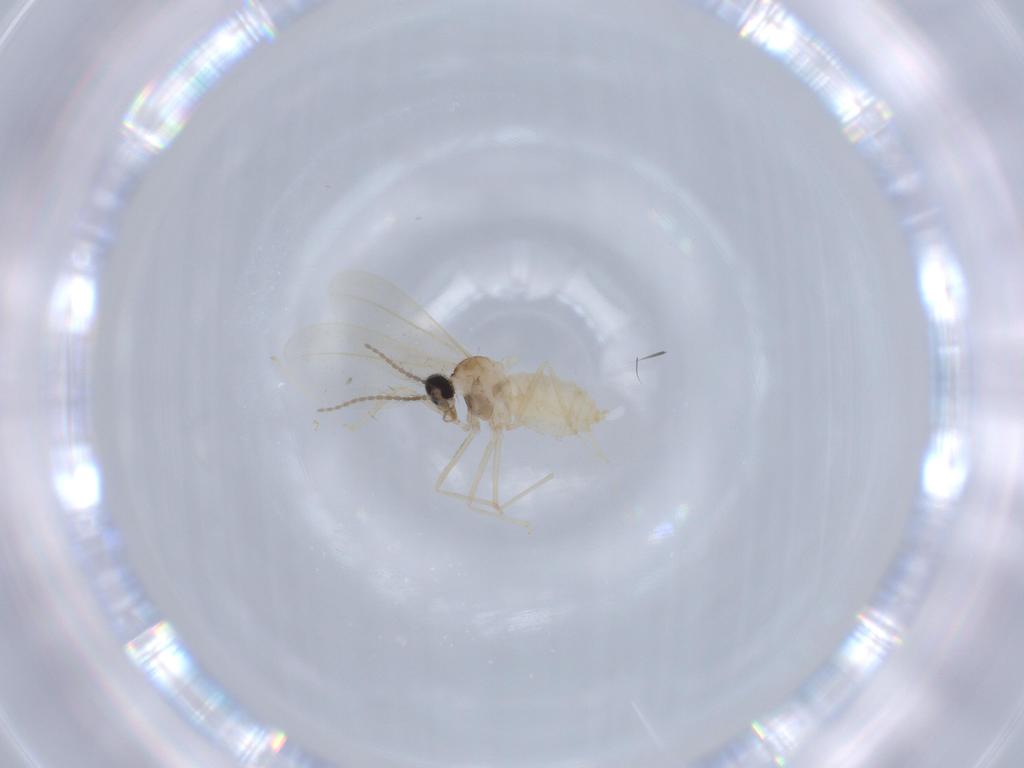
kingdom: Animalia
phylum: Arthropoda
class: Insecta
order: Diptera
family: Cecidomyiidae
